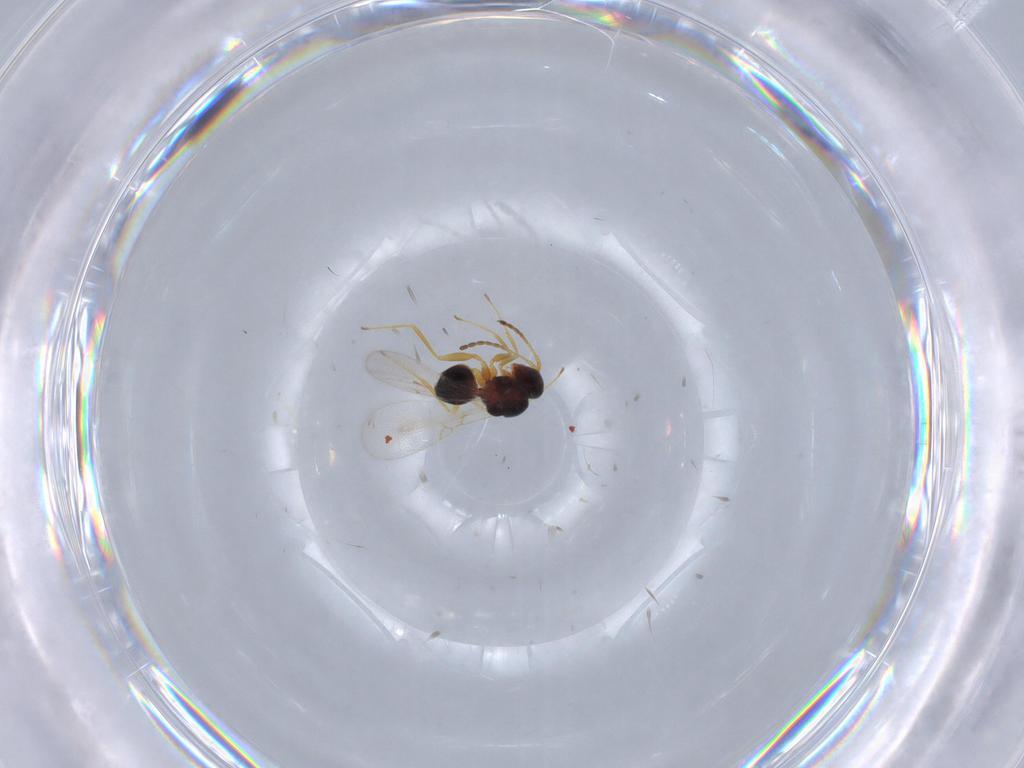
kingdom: Animalia
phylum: Arthropoda
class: Insecta
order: Hymenoptera
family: Figitidae
